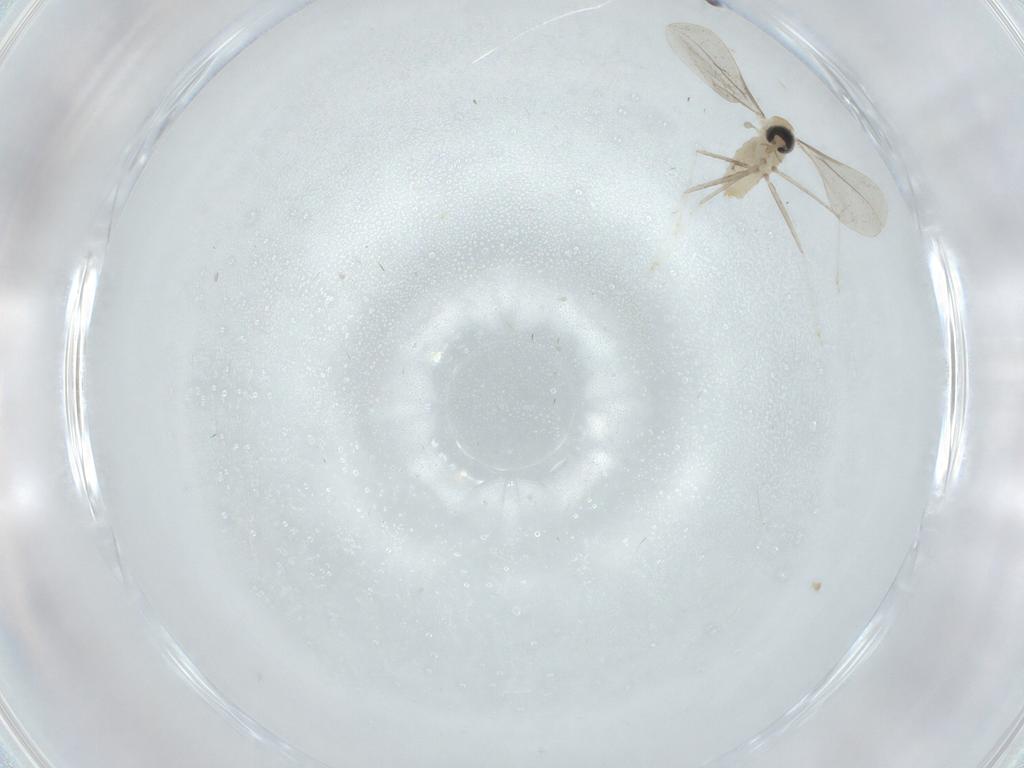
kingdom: Animalia
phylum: Arthropoda
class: Insecta
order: Diptera
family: Cecidomyiidae
